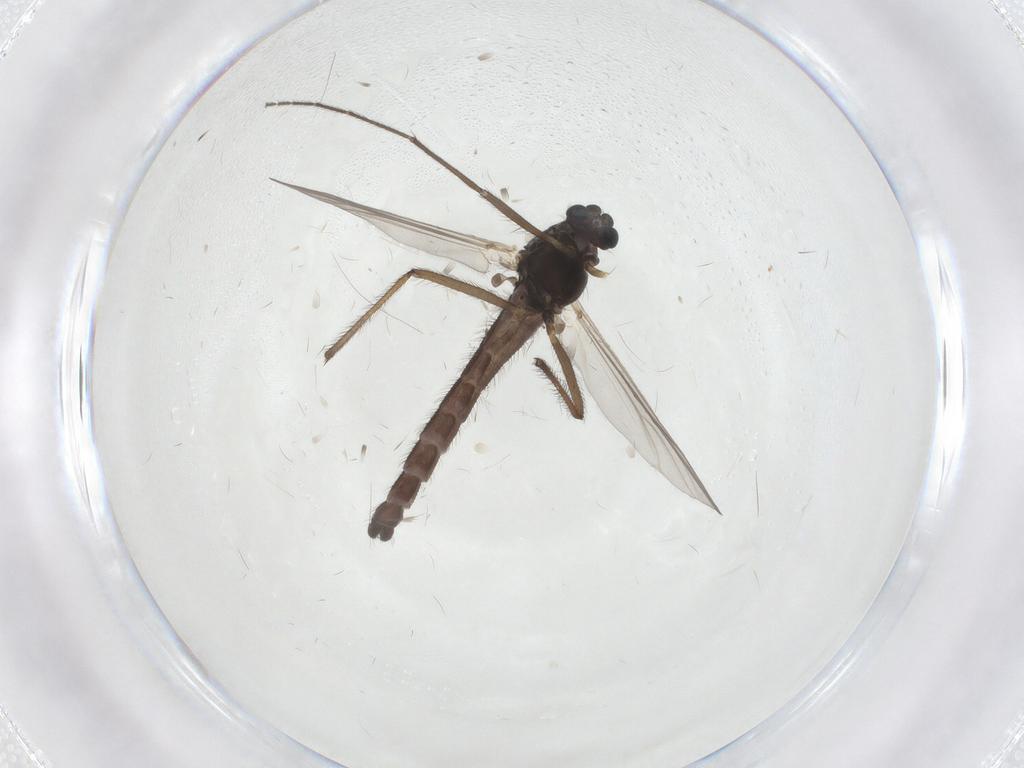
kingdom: Animalia
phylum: Arthropoda
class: Insecta
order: Diptera
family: Chironomidae
